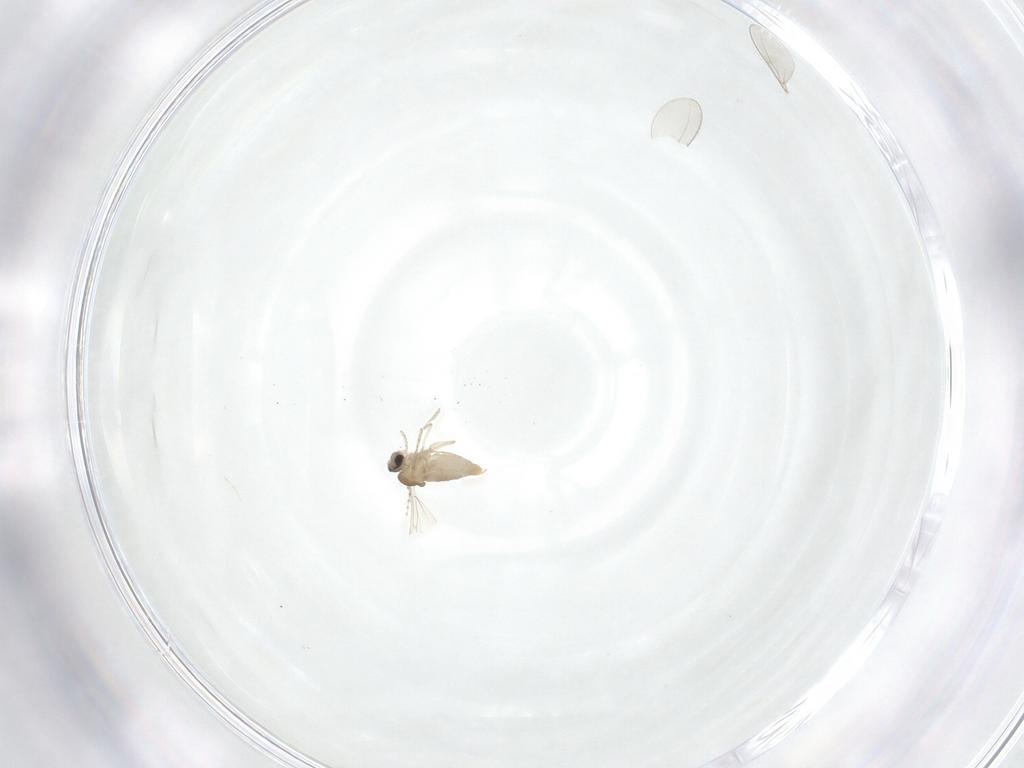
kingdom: Animalia
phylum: Arthropoda
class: Insecta
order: Diptera
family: Cecidomyiidae
